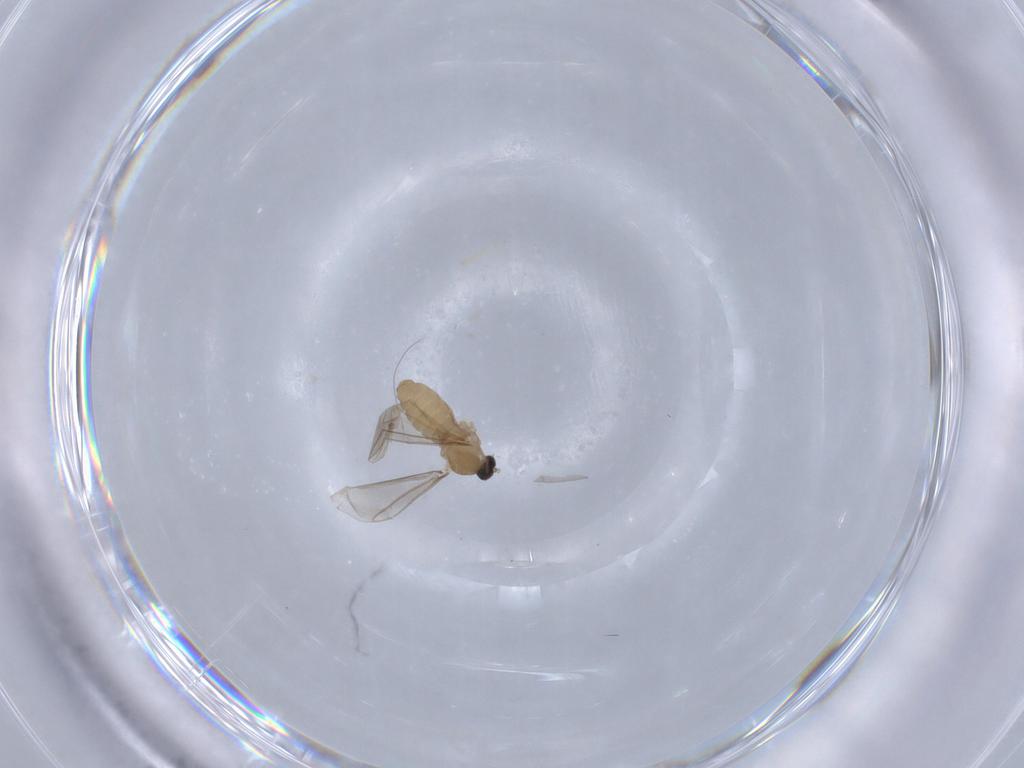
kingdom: Animalia
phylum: Arthropoda
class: Insecta
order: Diptera
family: Cecidomyiidae
